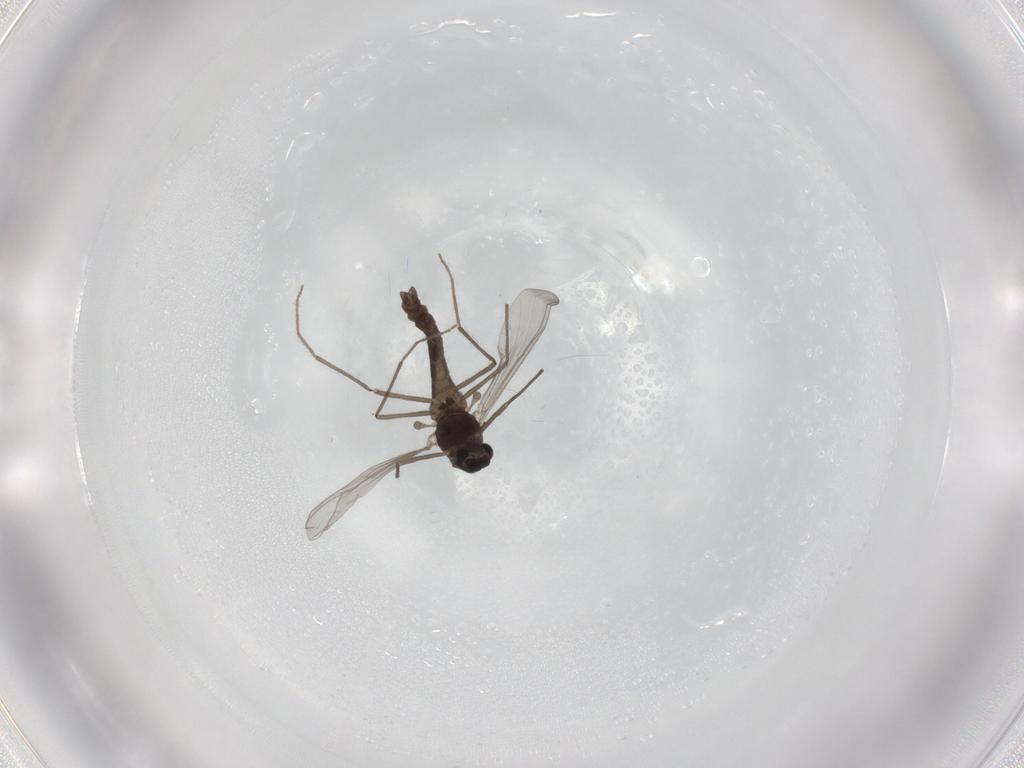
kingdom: Animalia
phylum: Arthropoda
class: Insecta
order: Diptera
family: Chironomidae
